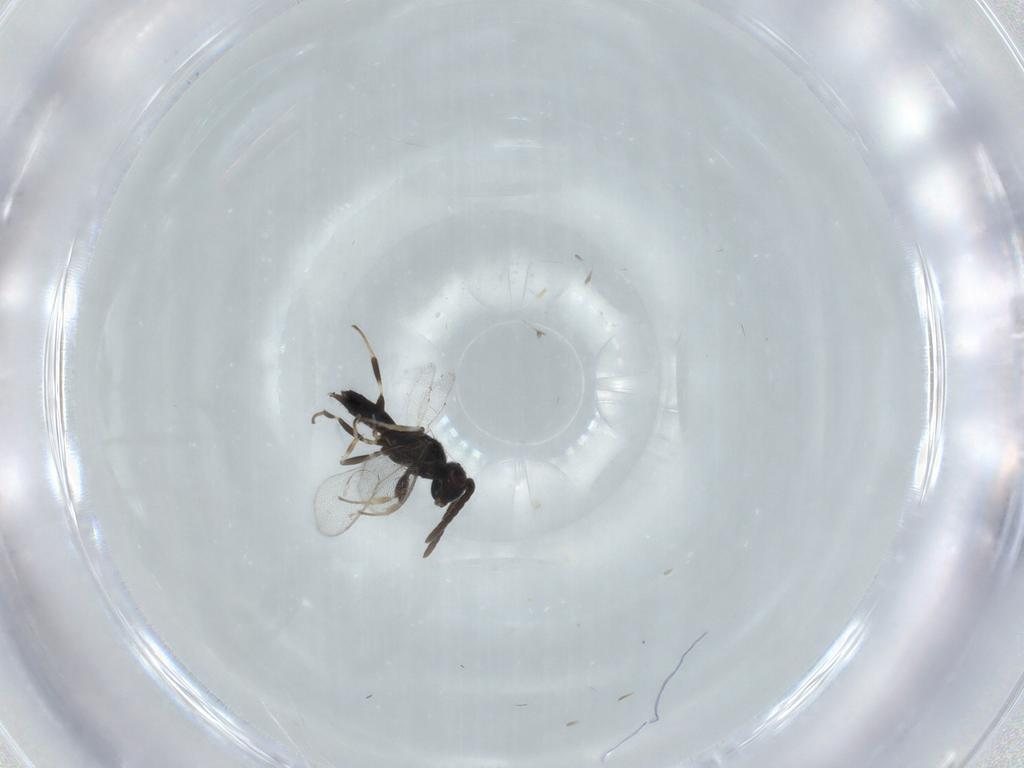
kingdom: Animalia
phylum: Arthropoda
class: Insecta
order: Hymenoptera
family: Eupelmidae
